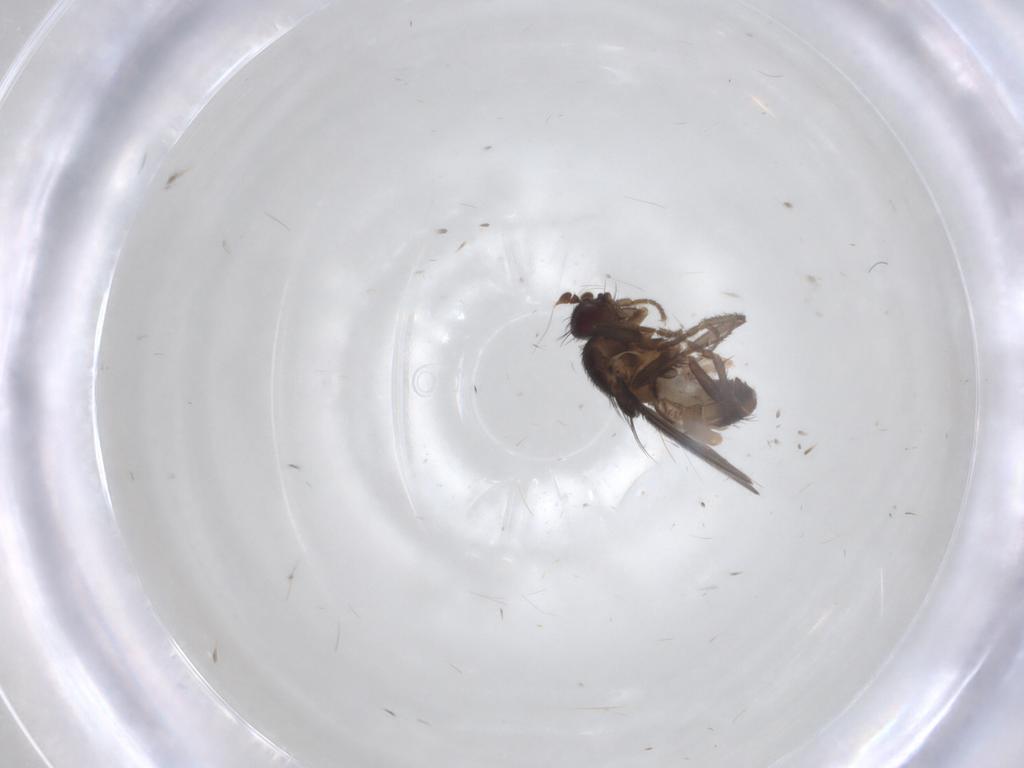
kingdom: Animalia
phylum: Arthropoda
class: Insecta
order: Diptera
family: Sphaeroceridae
